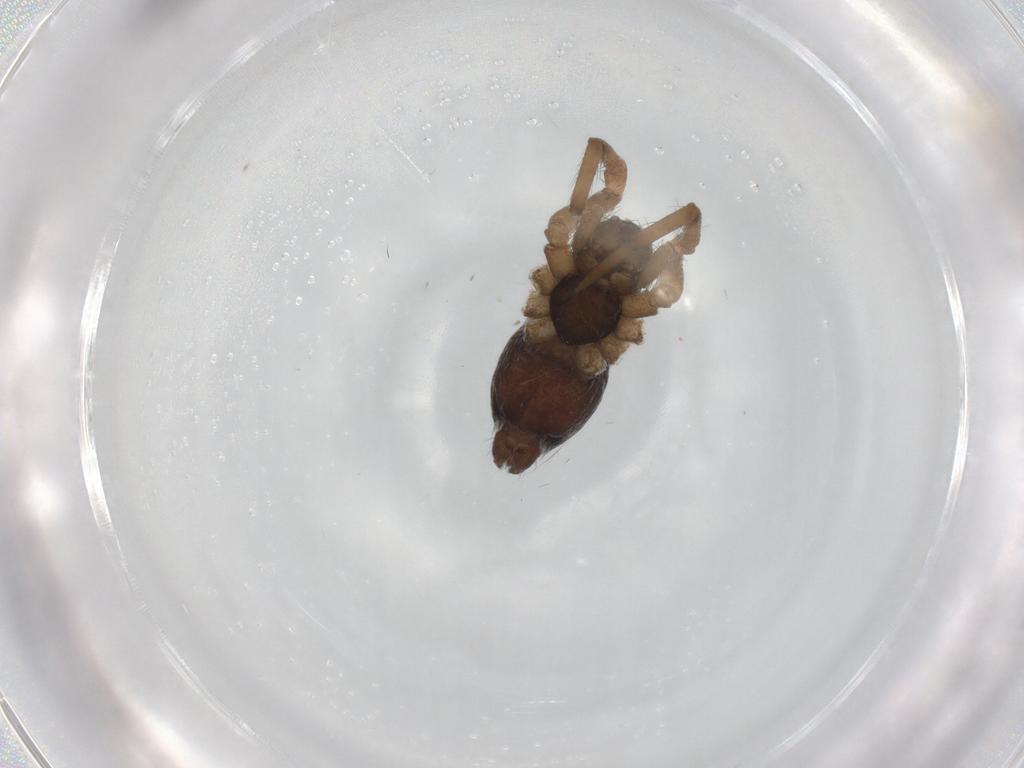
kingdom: Animalia
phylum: Arthropoda
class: Arachnida
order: Araneae
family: Desidae
